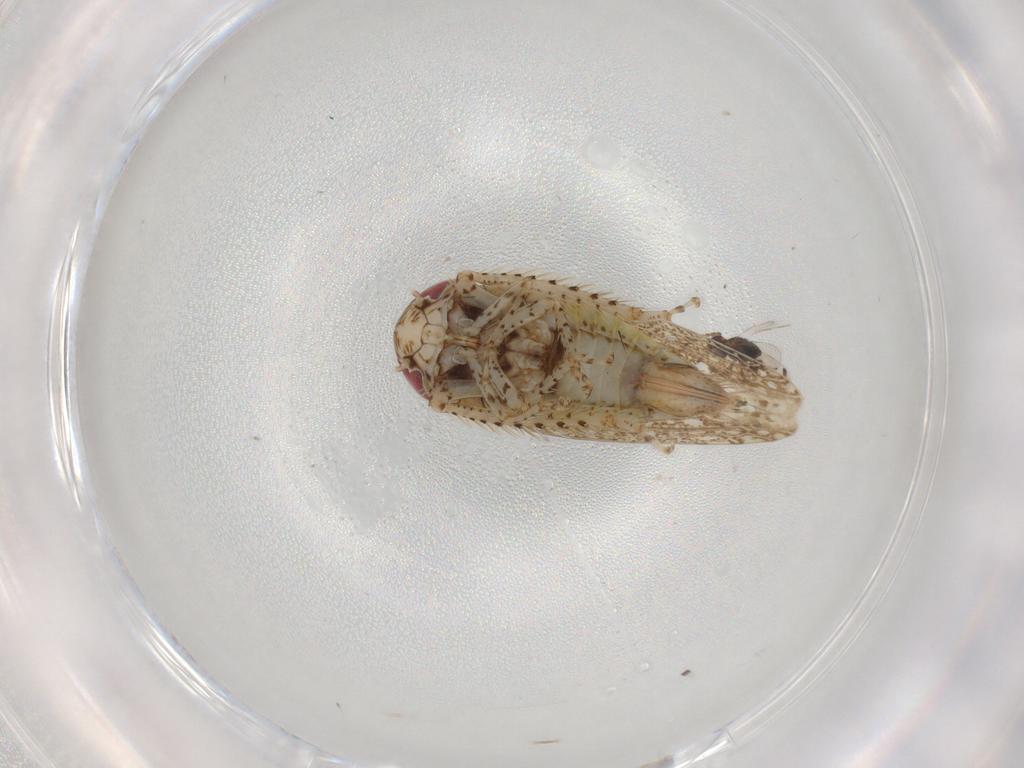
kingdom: Animalia
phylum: Arthropoda
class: Insecta
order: Hemiptera
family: Cicadellidae
